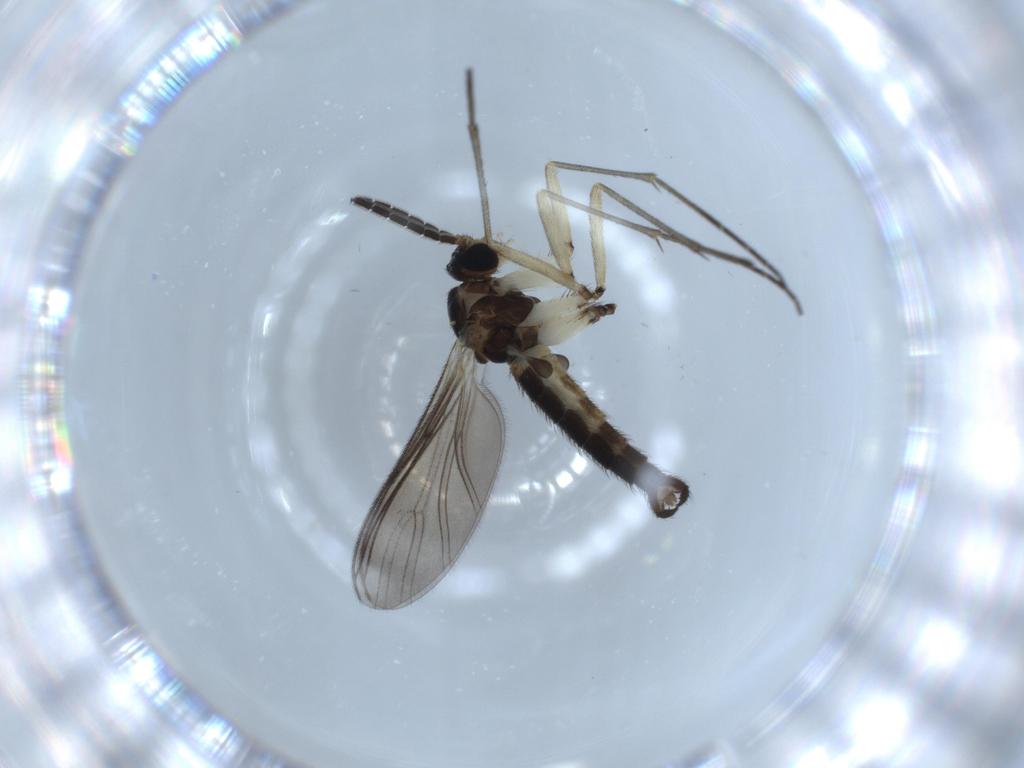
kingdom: Animalia
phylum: Arthropoda
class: Insecta
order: Diptera
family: Sciaridae
